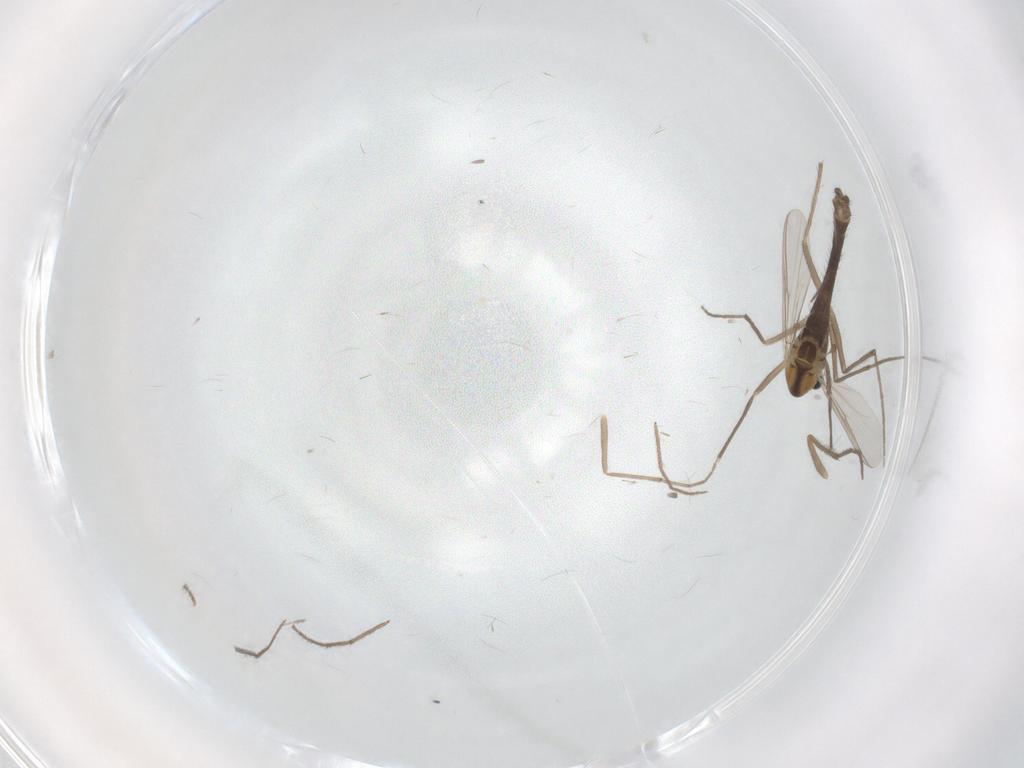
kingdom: Animalia
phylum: Arthropoda
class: Insecta
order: Diptera
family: Chironomidae
